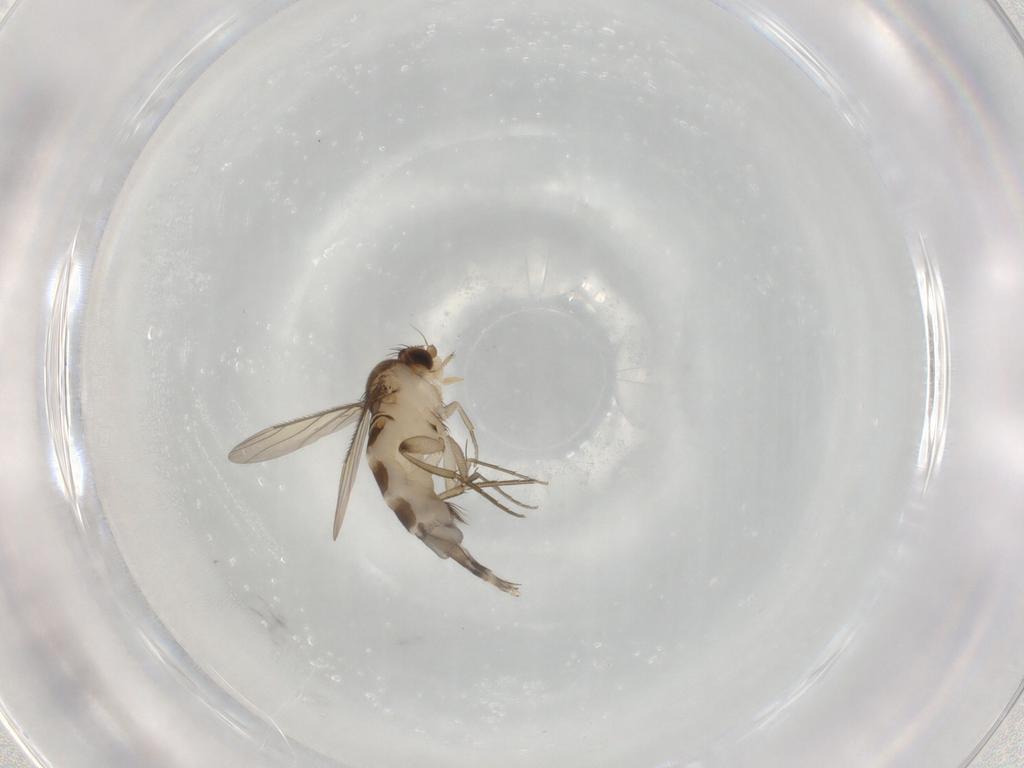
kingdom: Animalia
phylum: Arthropoda
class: Insecta
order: Diptera
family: Phoridae
